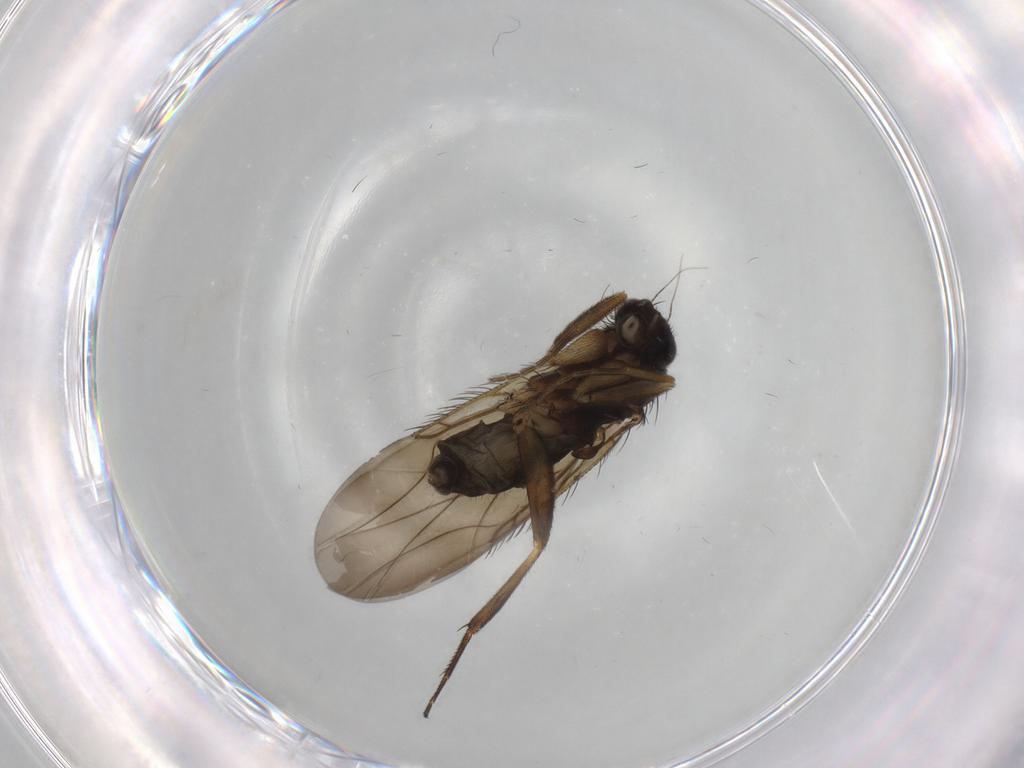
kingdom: Animalia
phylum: Arthropoda
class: Insecta
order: Diptera
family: Phoridae
